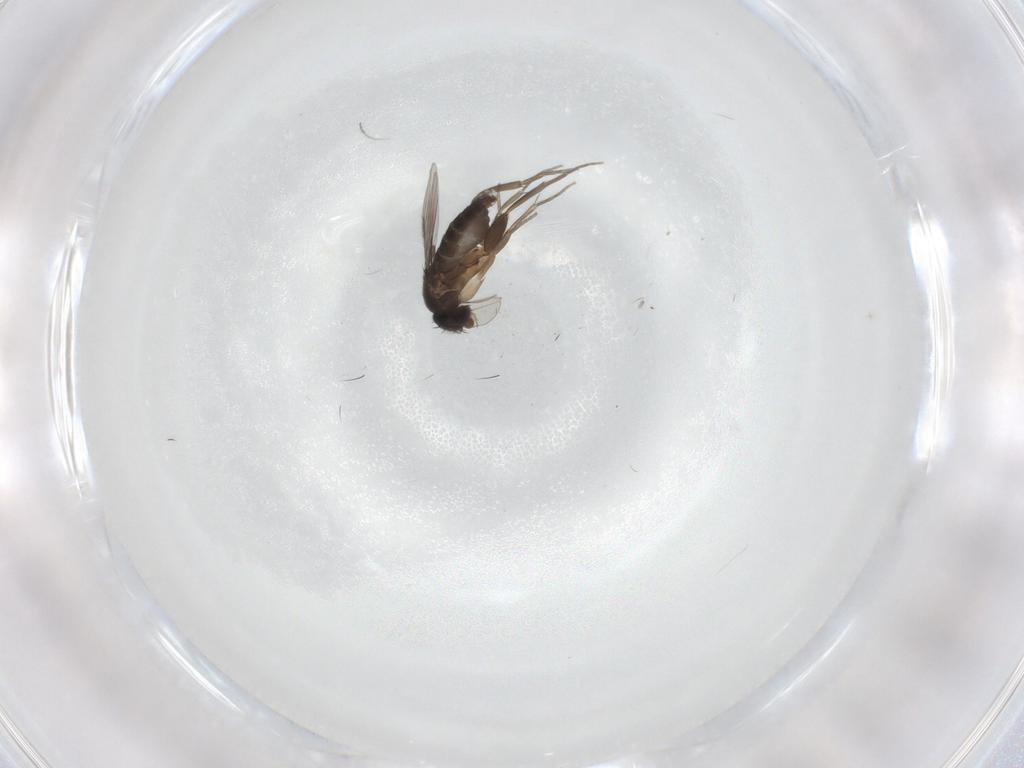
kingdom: Animalia
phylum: Arthropoda
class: Insecta
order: Diptera
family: Phoridae
